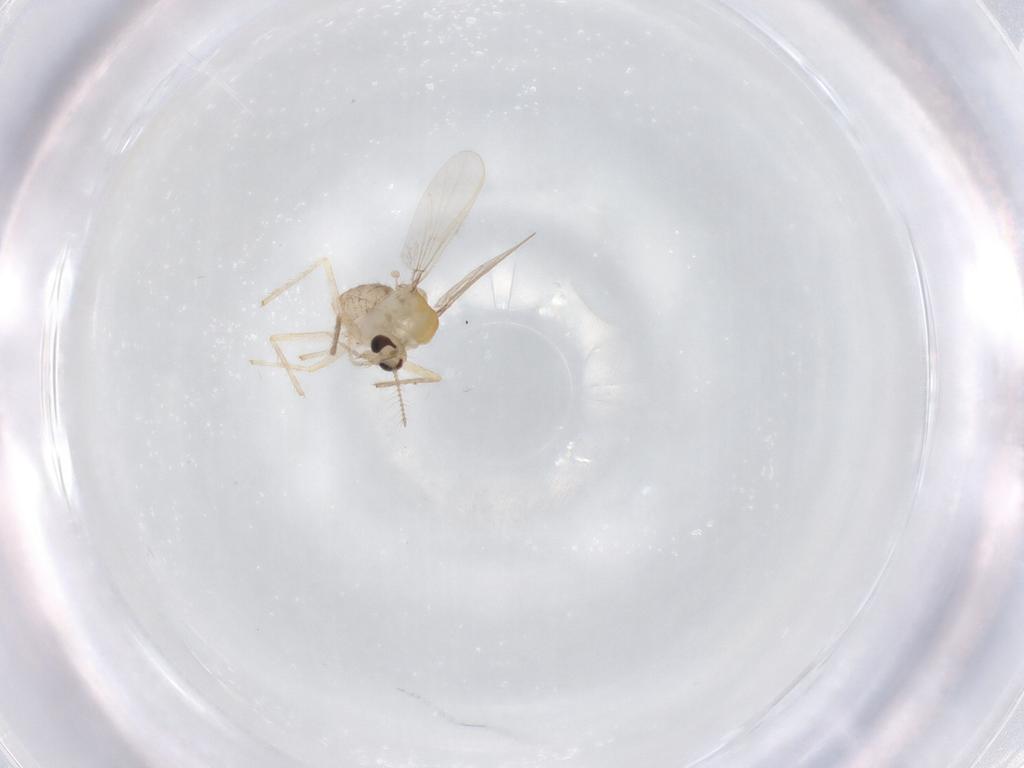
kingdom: Animalia
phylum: Arthropoda
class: Insecta
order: Diptera
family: Chironomidae
